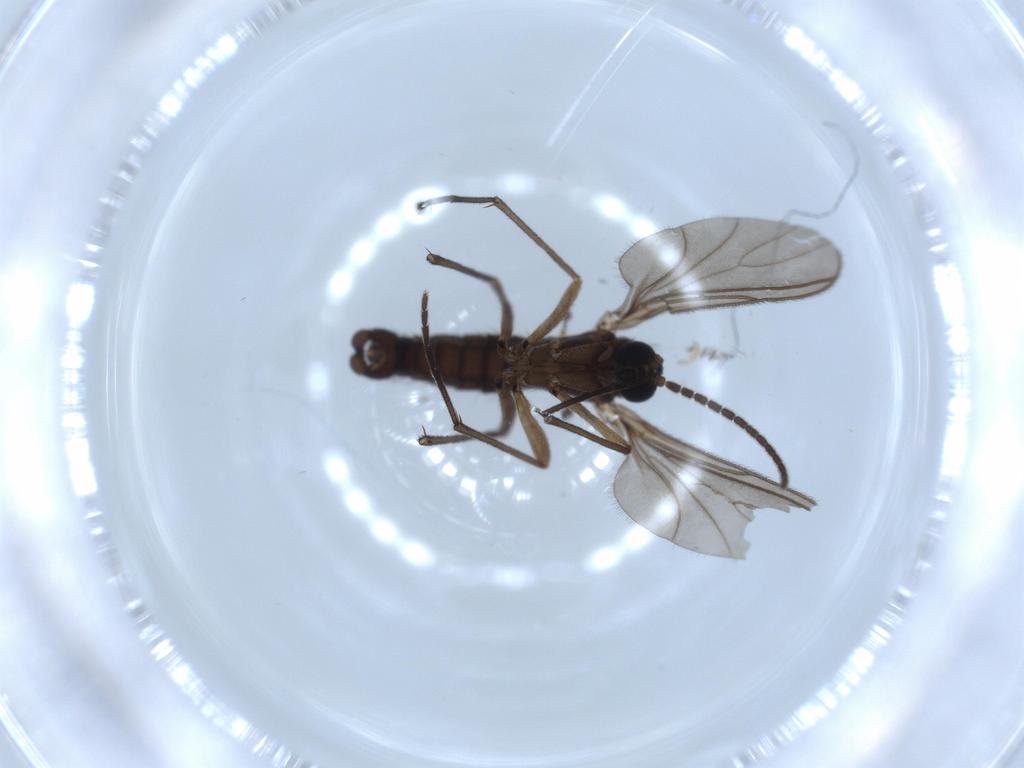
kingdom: Animalia
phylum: Arthropoda
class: Insecta
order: Diptera
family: Sciaridae
